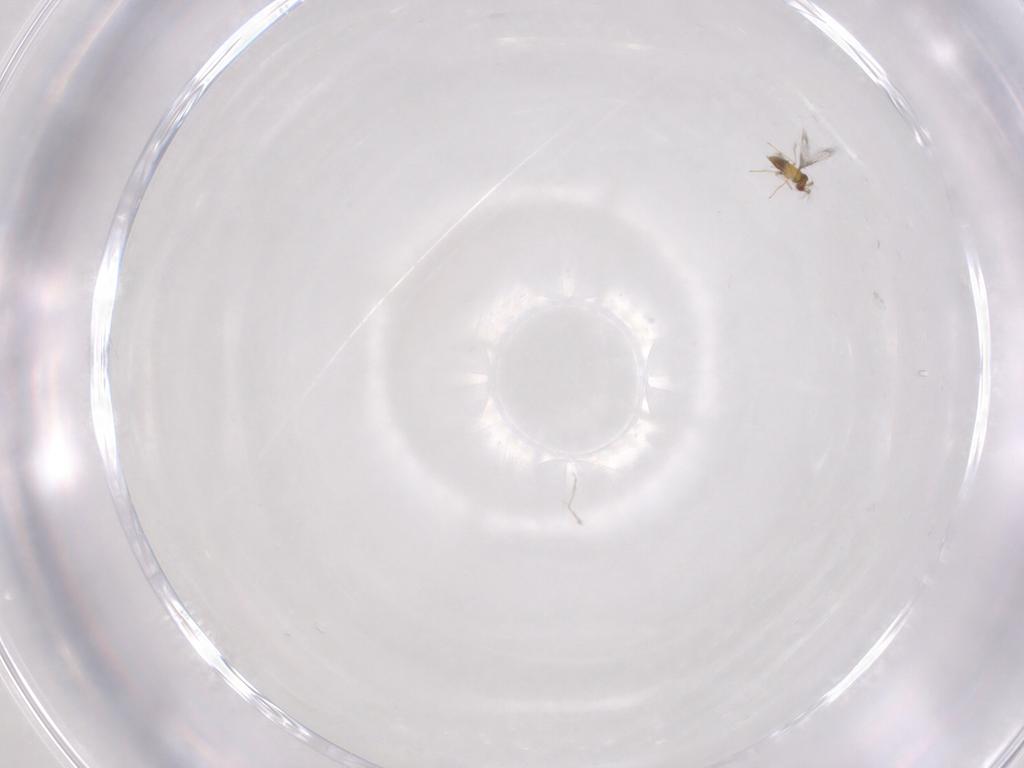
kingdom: Animalia
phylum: Arthropoda
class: Insecta
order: Hymenoptera
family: Trichogrammatidae
